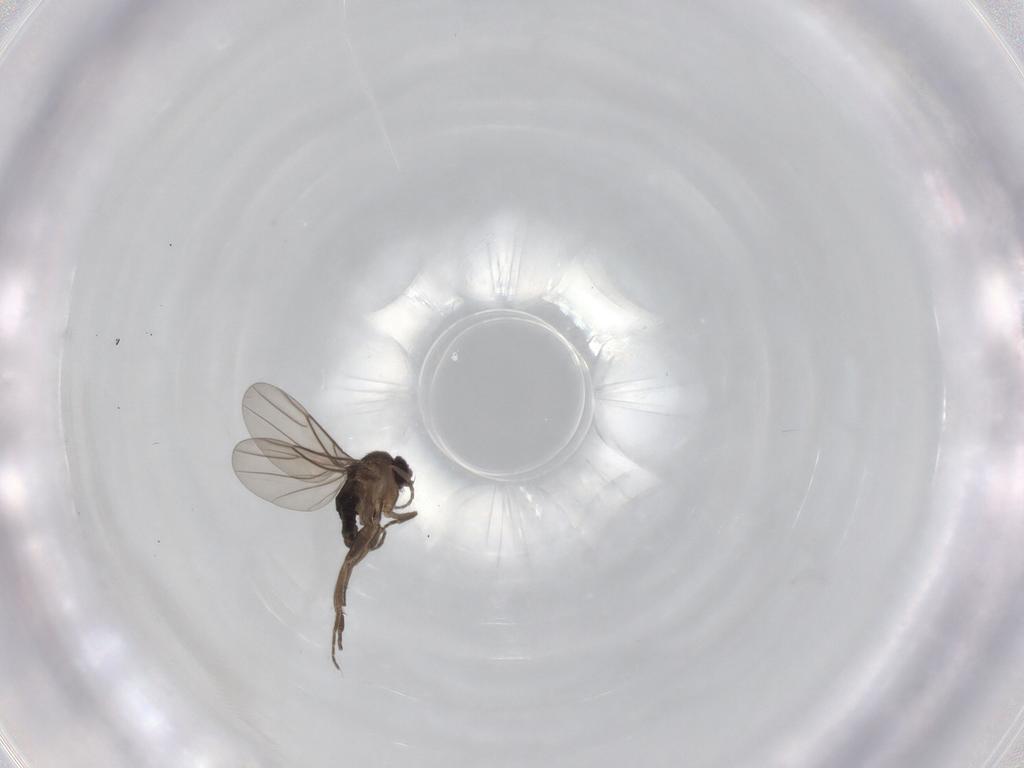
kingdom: Animalia
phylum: Arthropoda
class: Insecta
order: Diptera
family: Phoridae
